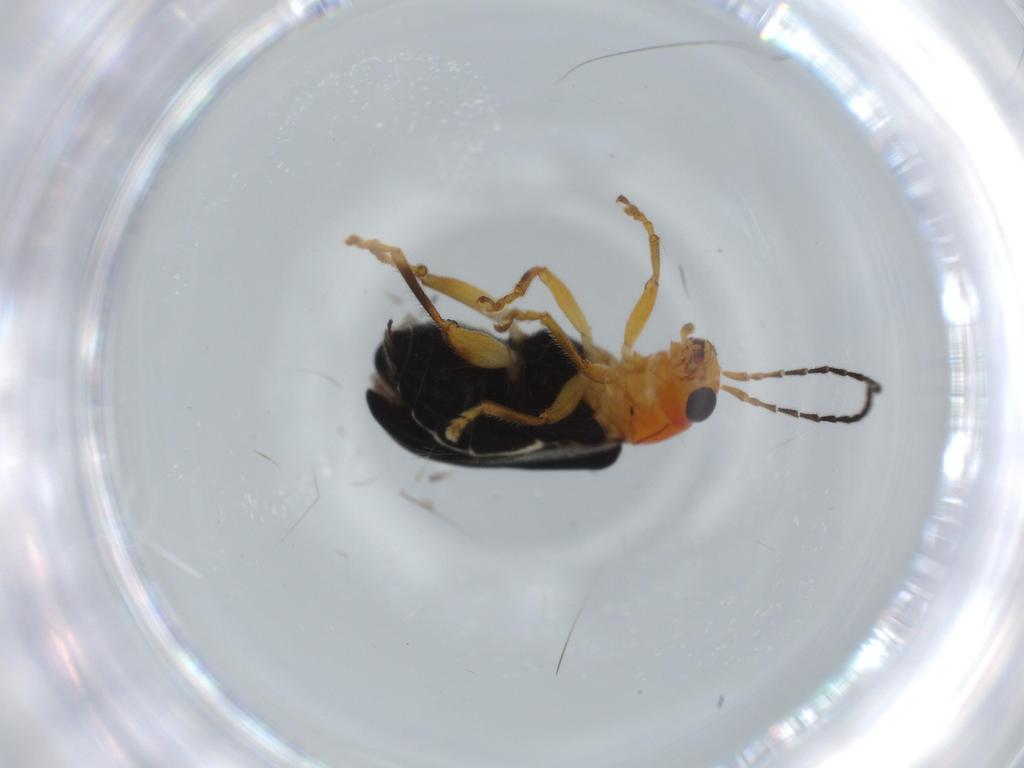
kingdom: Animalia
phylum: Arthropoda
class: Insecta
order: Coleoptera
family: Chrysomelidae
